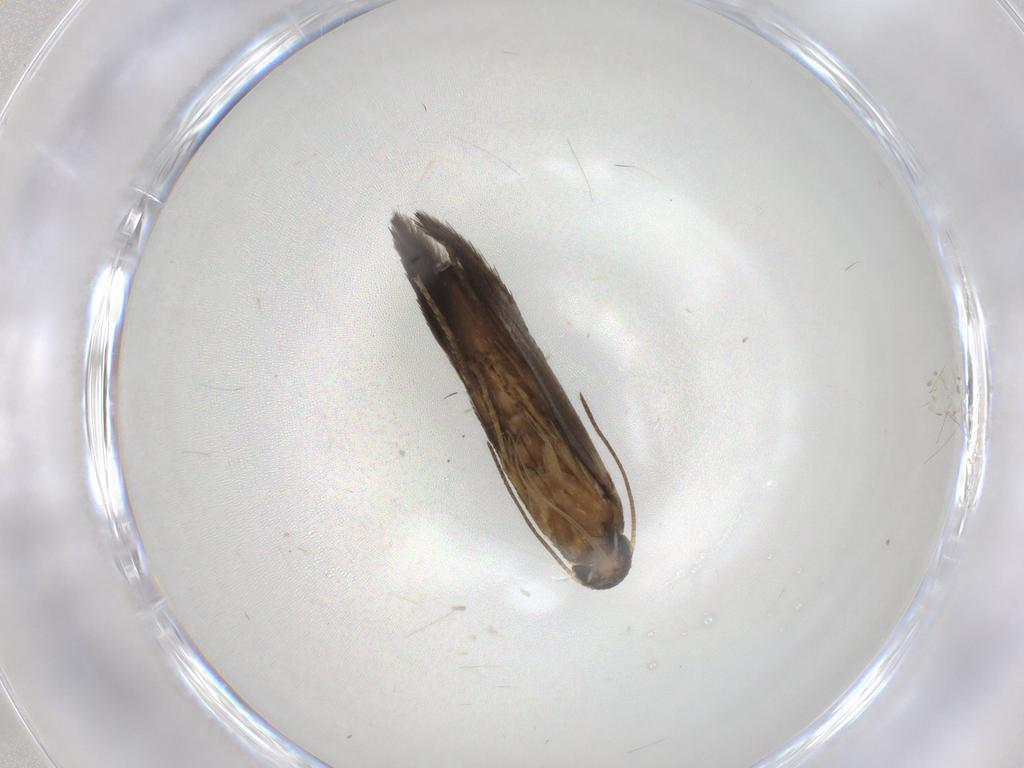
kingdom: Animalia
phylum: Arthropoda
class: Insecta
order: Lepidoptera
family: Heliozelidae
